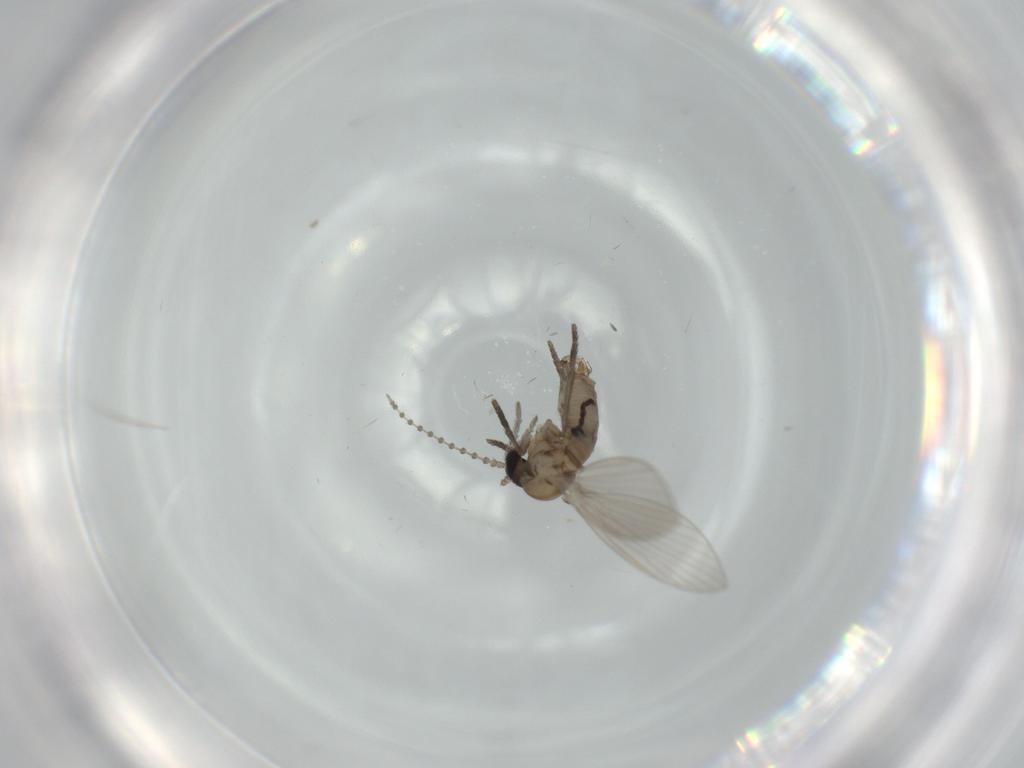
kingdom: Animalia
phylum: Arthropoda
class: Insecta
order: Diptera
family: Psychodidae
